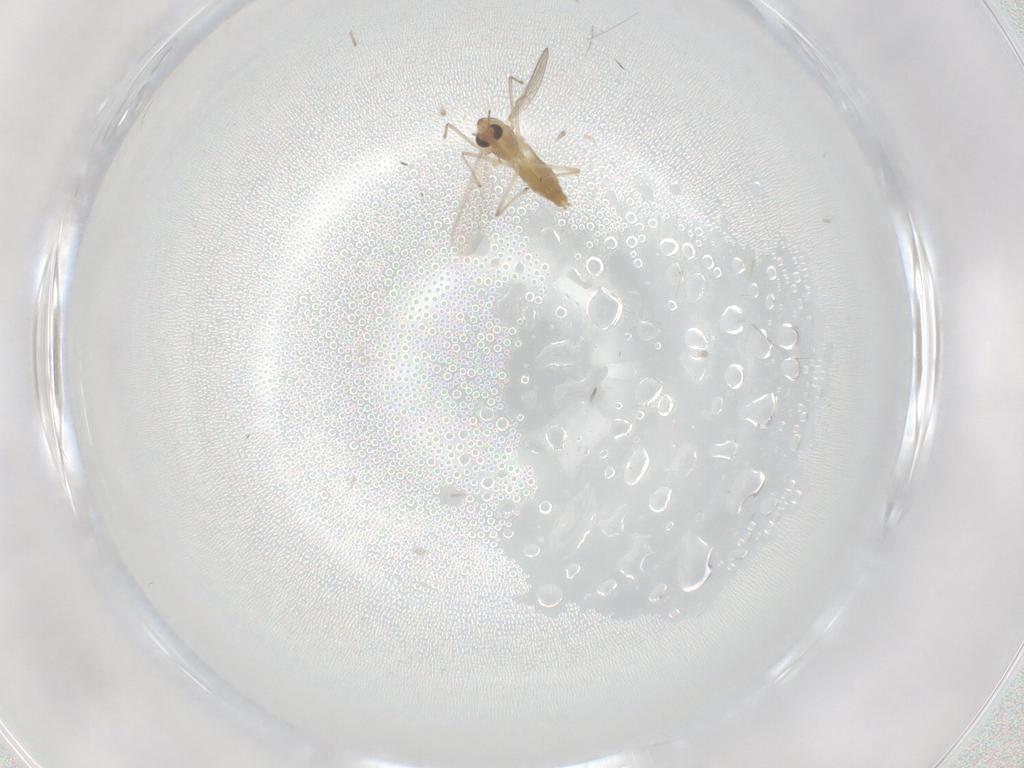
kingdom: Animalia
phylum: Arthropoda
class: Insecta
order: Diptera
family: Chironomidae
